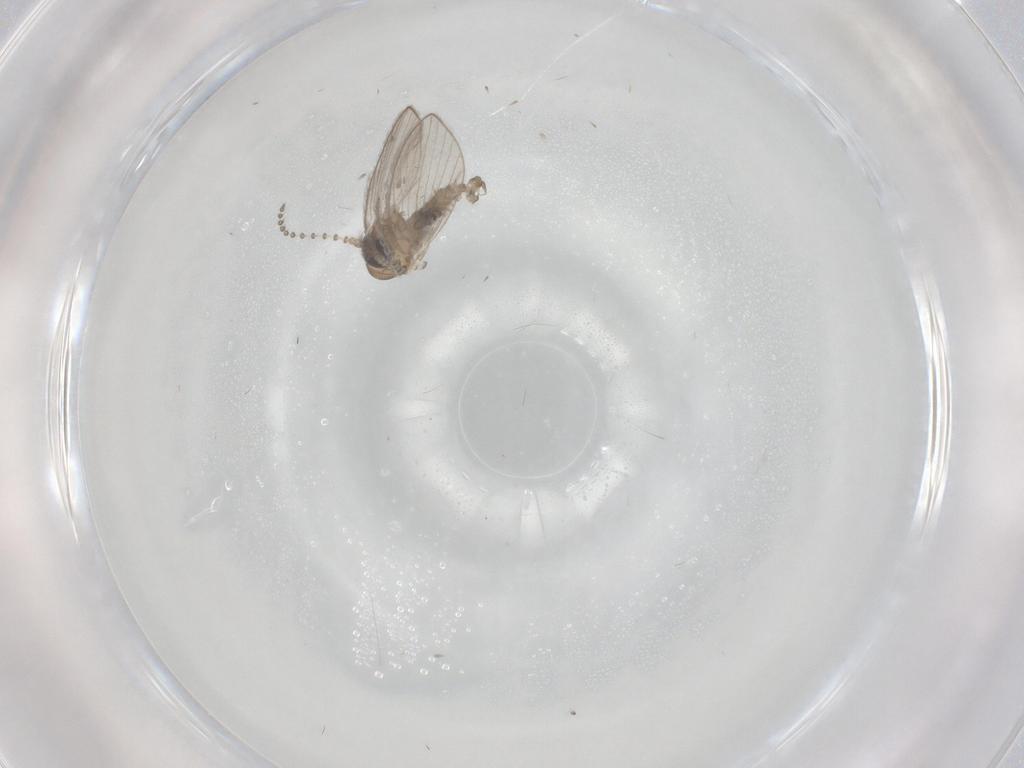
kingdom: Animalia
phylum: Arthropoda
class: Insecta
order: Diptera
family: Psychodidae
